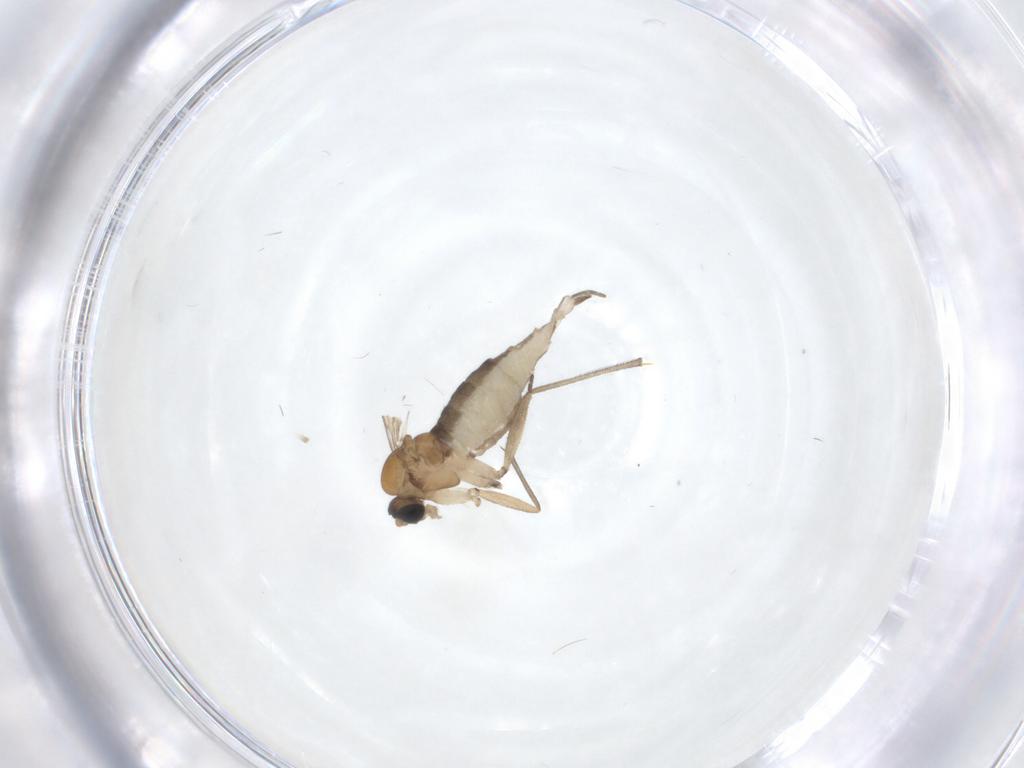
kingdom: Animalia
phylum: Arthropoda
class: Insecta
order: Diptera
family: Sciaridae
